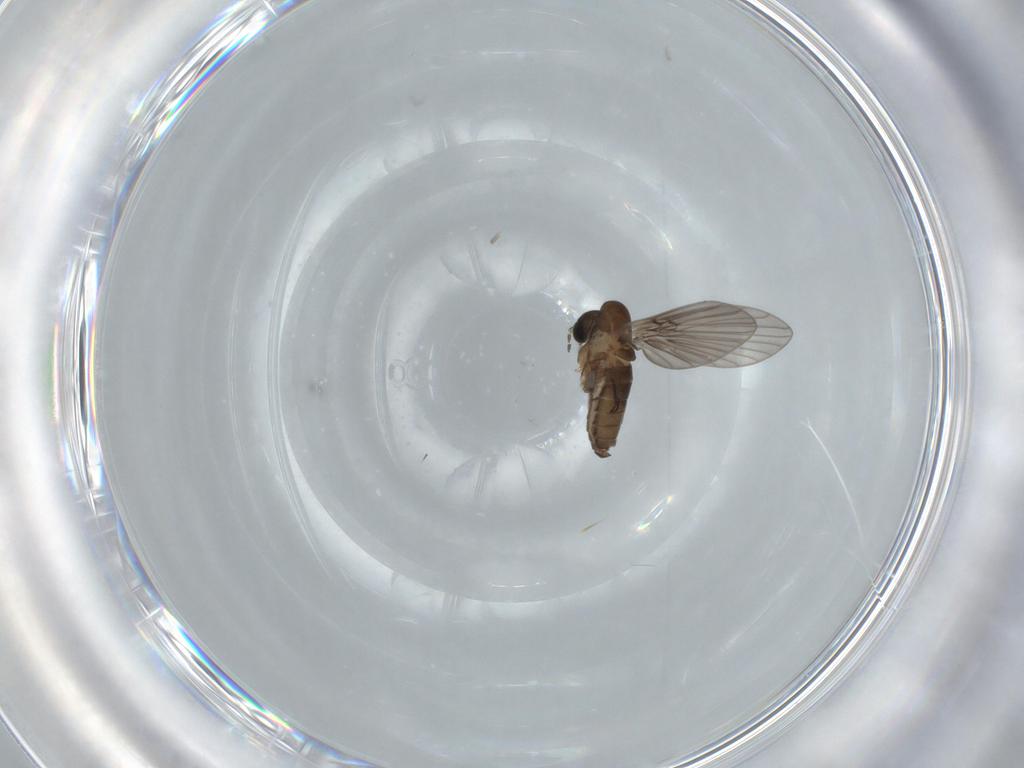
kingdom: Animalia
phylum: Arthropoda
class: Insecta
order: Diptera
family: Psychodidae
